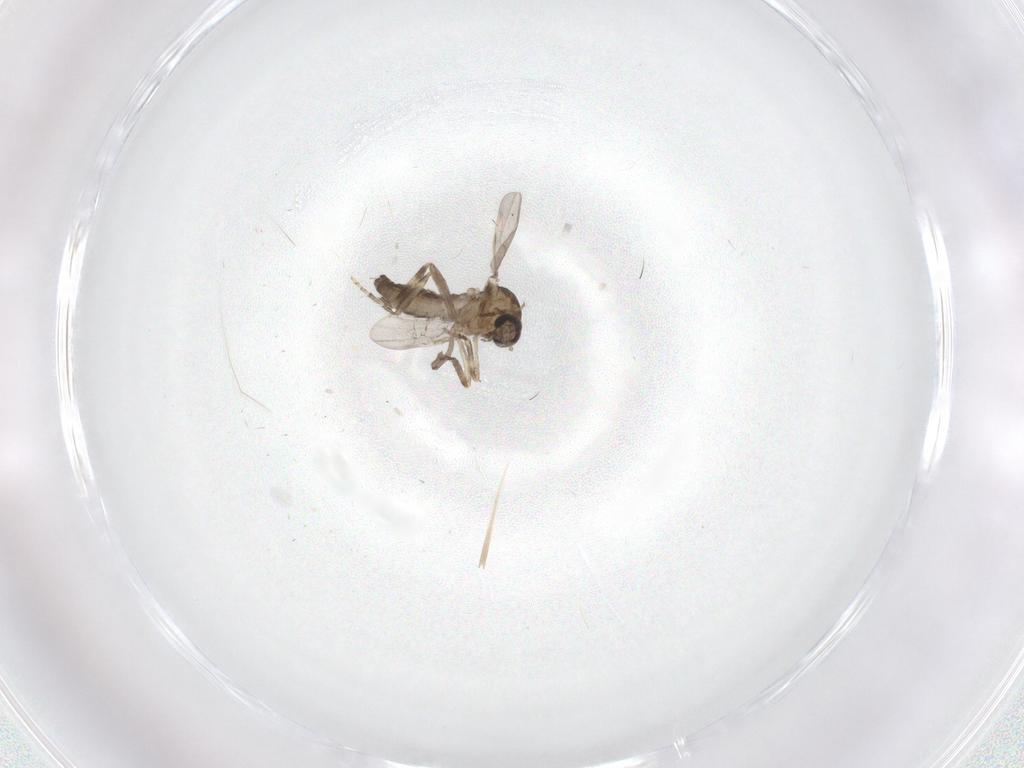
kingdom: Animalia
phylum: Arthropoda
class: Insecta
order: Diptera
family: Ceratopogonidae
